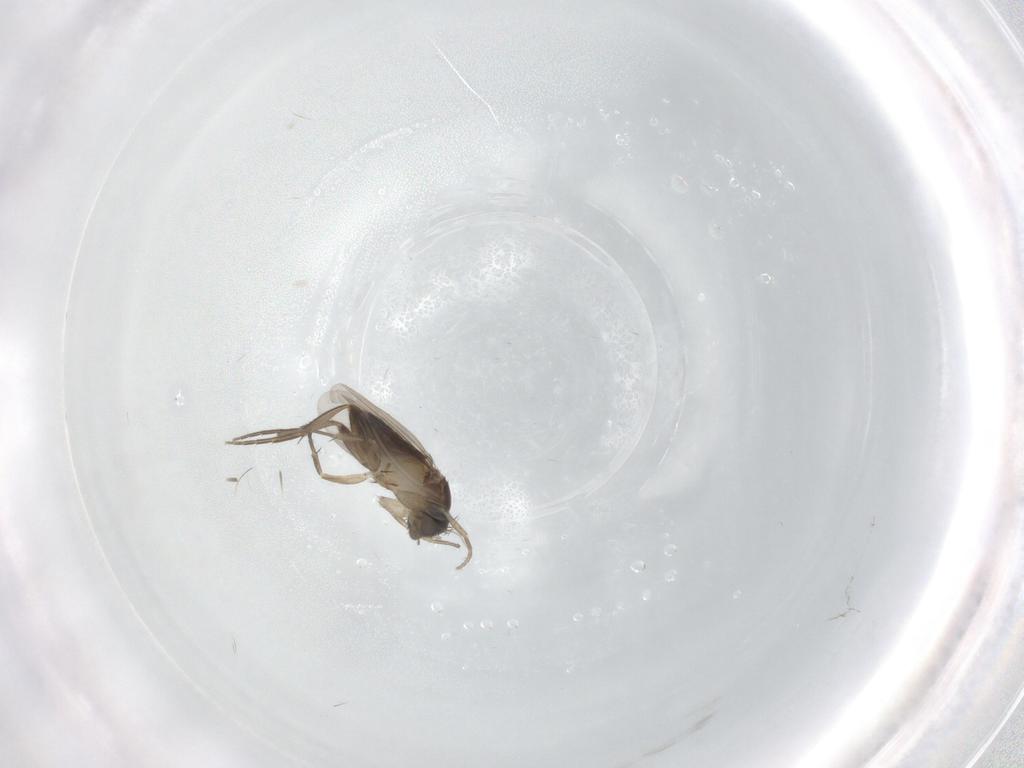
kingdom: Animalia
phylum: Arthropoda
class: Insecta
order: Diptera
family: Phoridae
